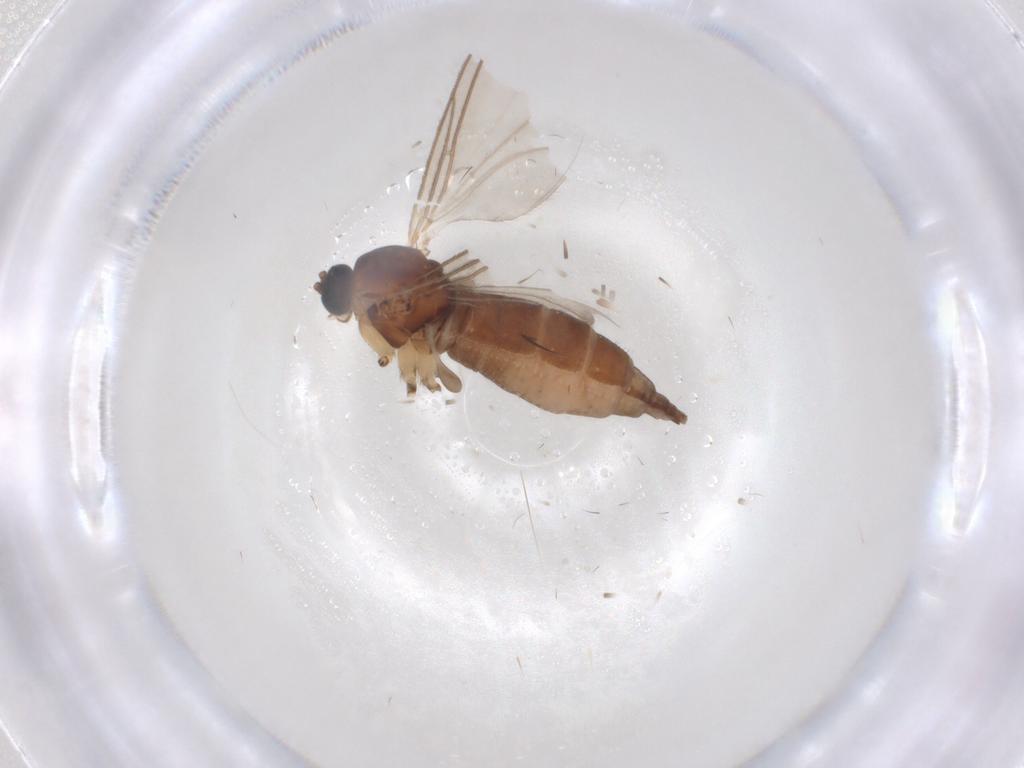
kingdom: Animalia
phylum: Arthropoda
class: Insecta
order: Diptera
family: Sciaridae
